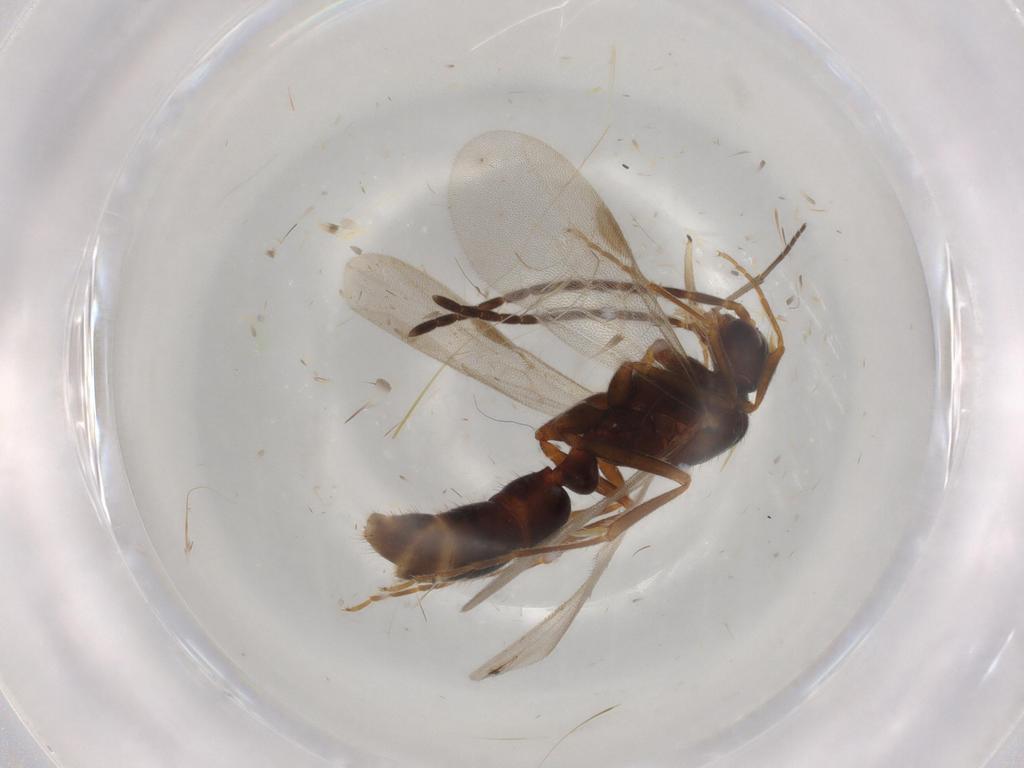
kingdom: Animalia
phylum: Arthropoda
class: Insecta
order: Hymenoptera
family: Formicidae
